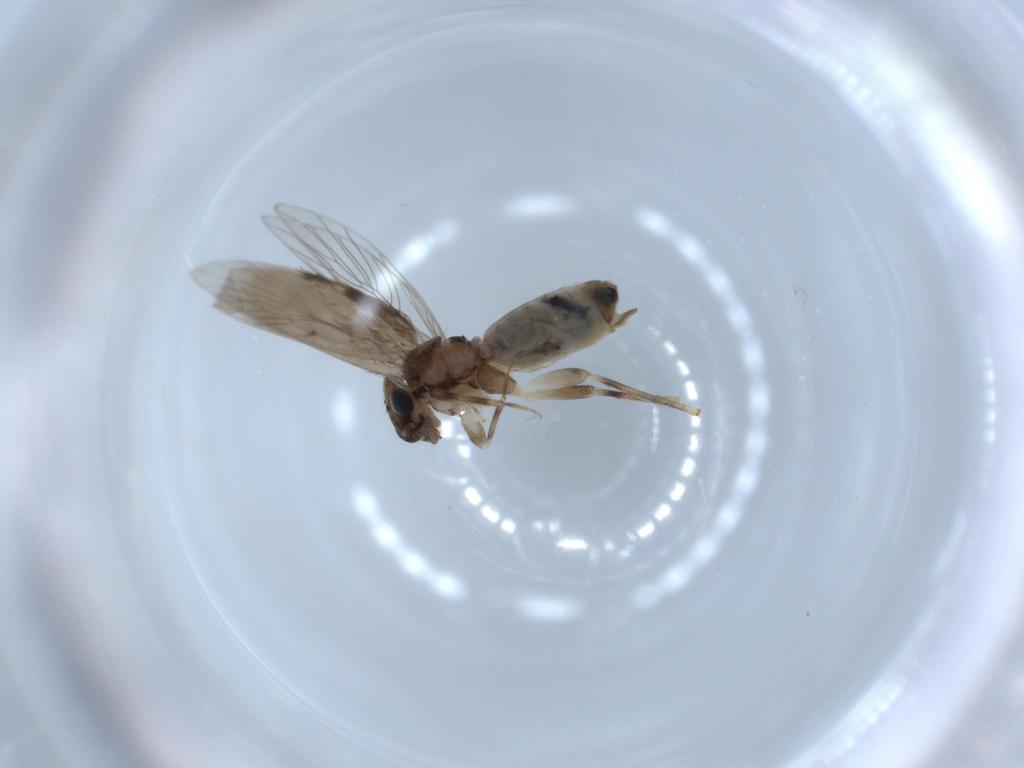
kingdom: Animalia
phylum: Arthropoda
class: Insecta
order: Psocodea
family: Lepidopsocidae
